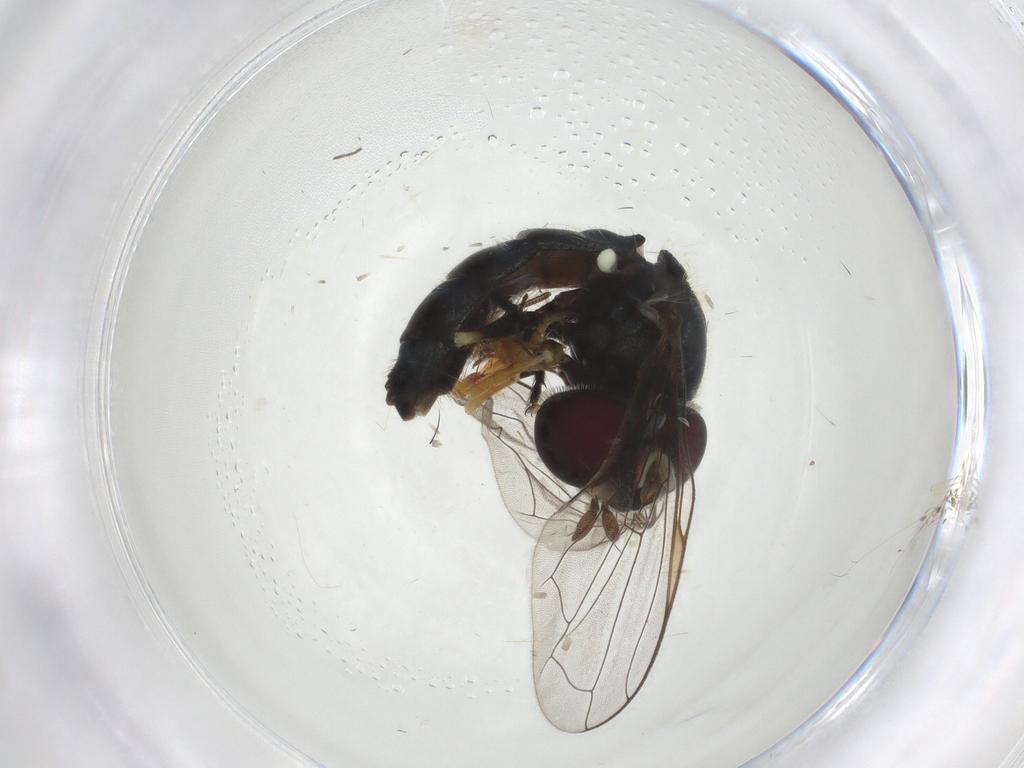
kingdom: Animalia
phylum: Arthropoda
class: Insecta
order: Diptera
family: Syrphidae
